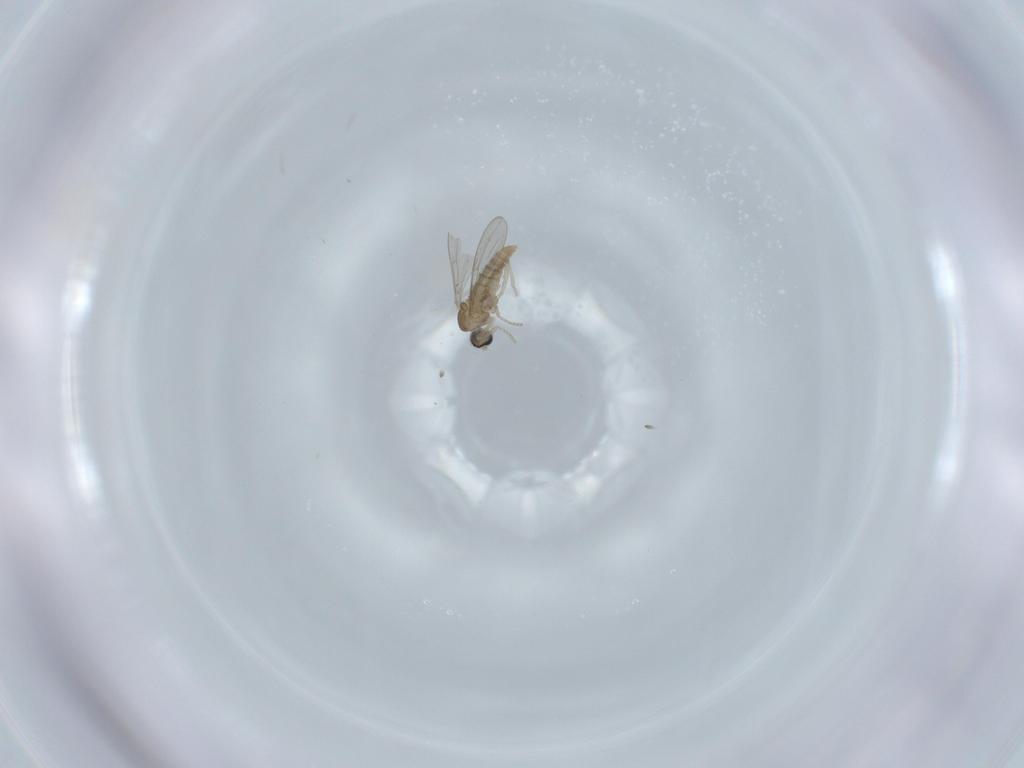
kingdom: Animalia
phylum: Arthropoda
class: Insecta
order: Diptera
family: Cecidomyiidae
